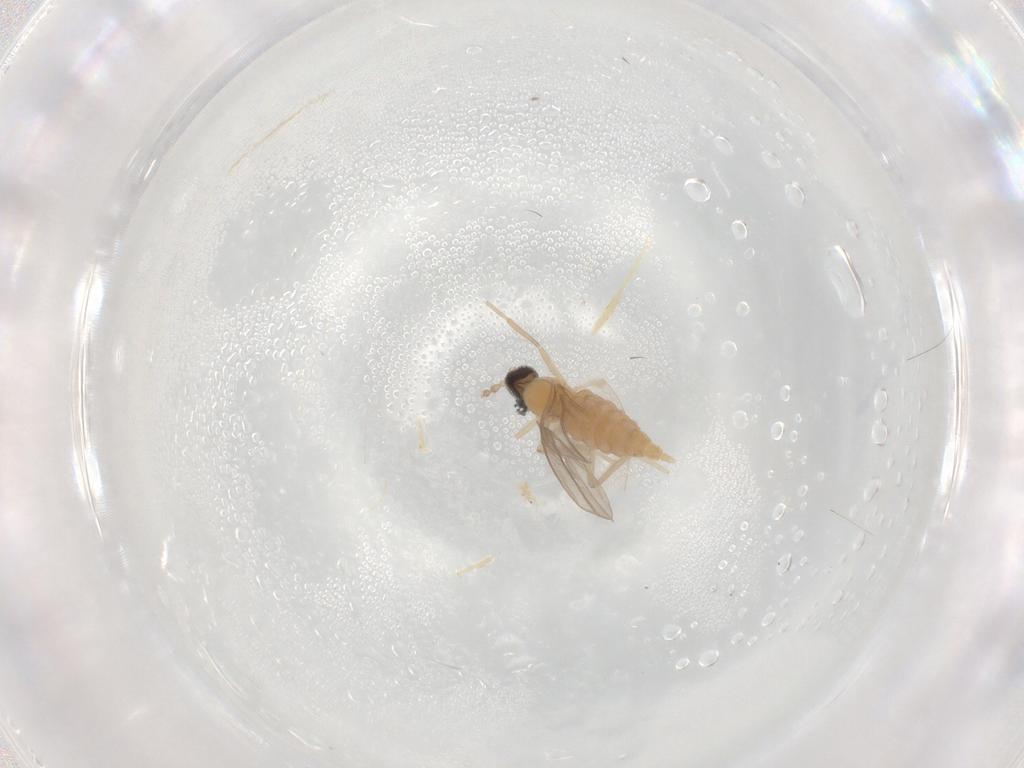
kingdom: Animalia
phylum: Arthropoda
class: Insecta
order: Diptera
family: Cecidomyiidae
